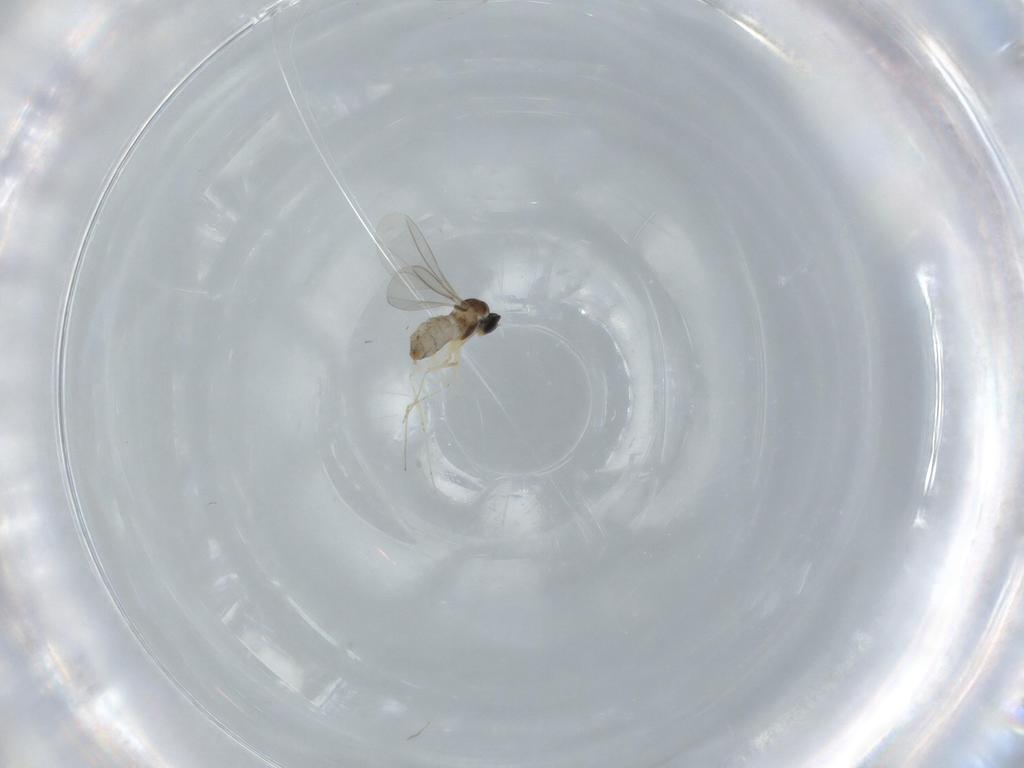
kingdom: Animalia
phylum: Arthropoda
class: Insecta
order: Diptera
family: Cecidomyiidae
